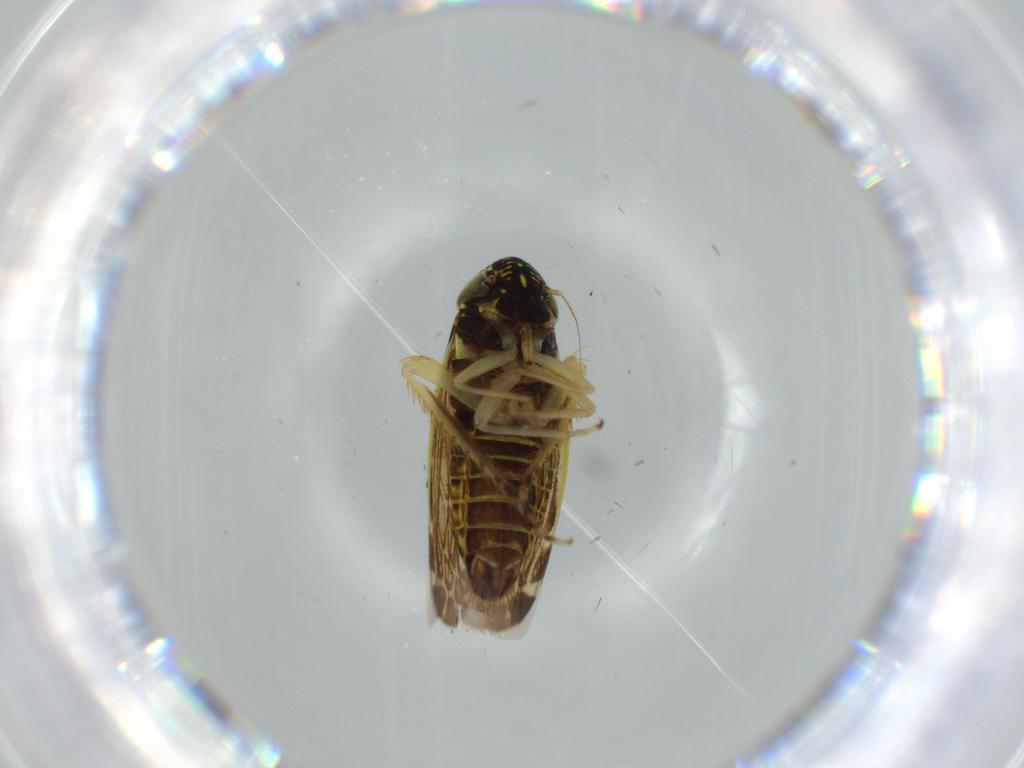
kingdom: Animalia
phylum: Arthropoda
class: Insecta
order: Hemiptera
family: Cicadellidae
